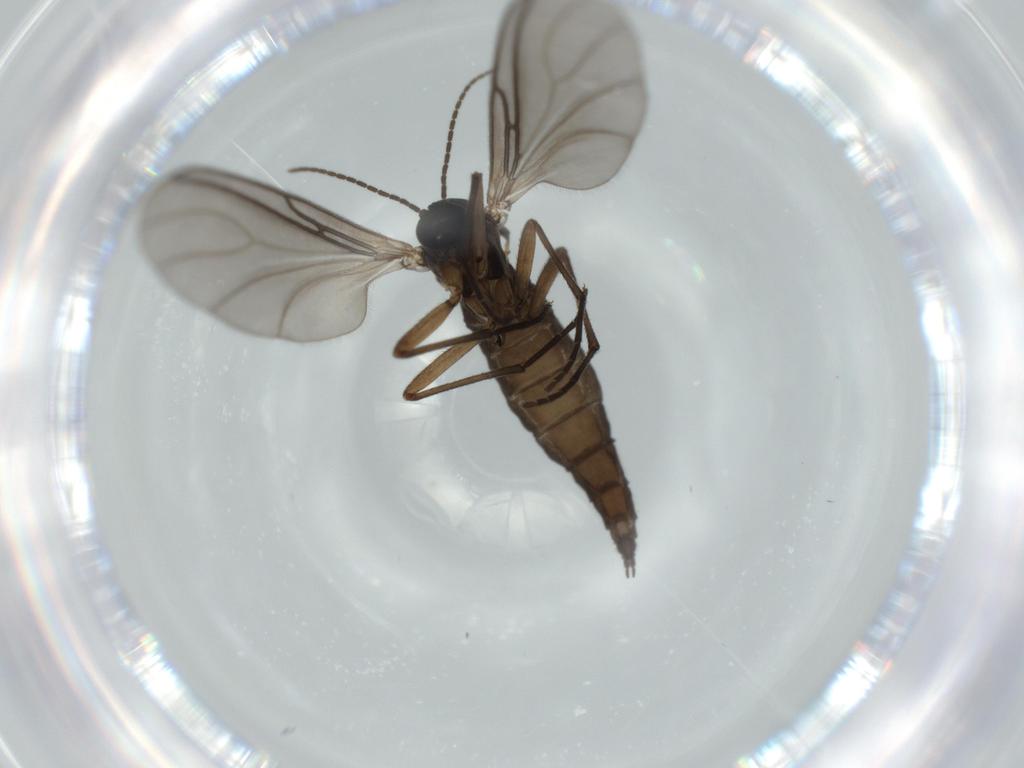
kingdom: Animalia
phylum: Arthropoda
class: Insecta
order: Diptera
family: Sciaridae
